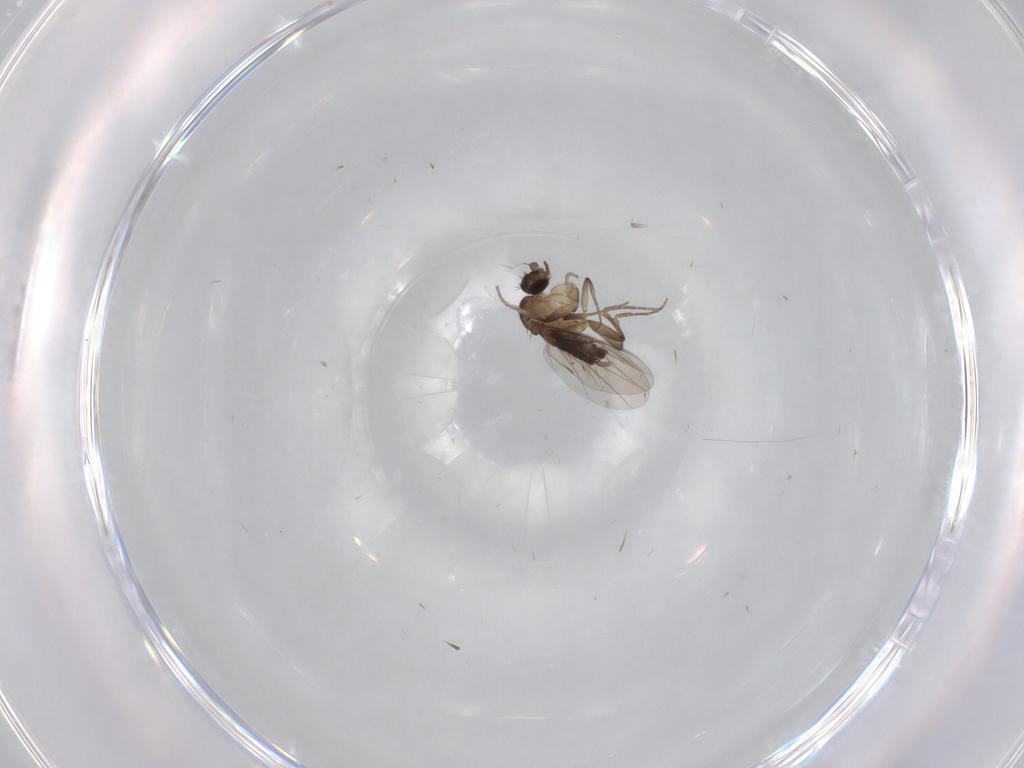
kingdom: Animalia
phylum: Arthropoda
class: Insecta
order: Diptera
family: Phoridae
